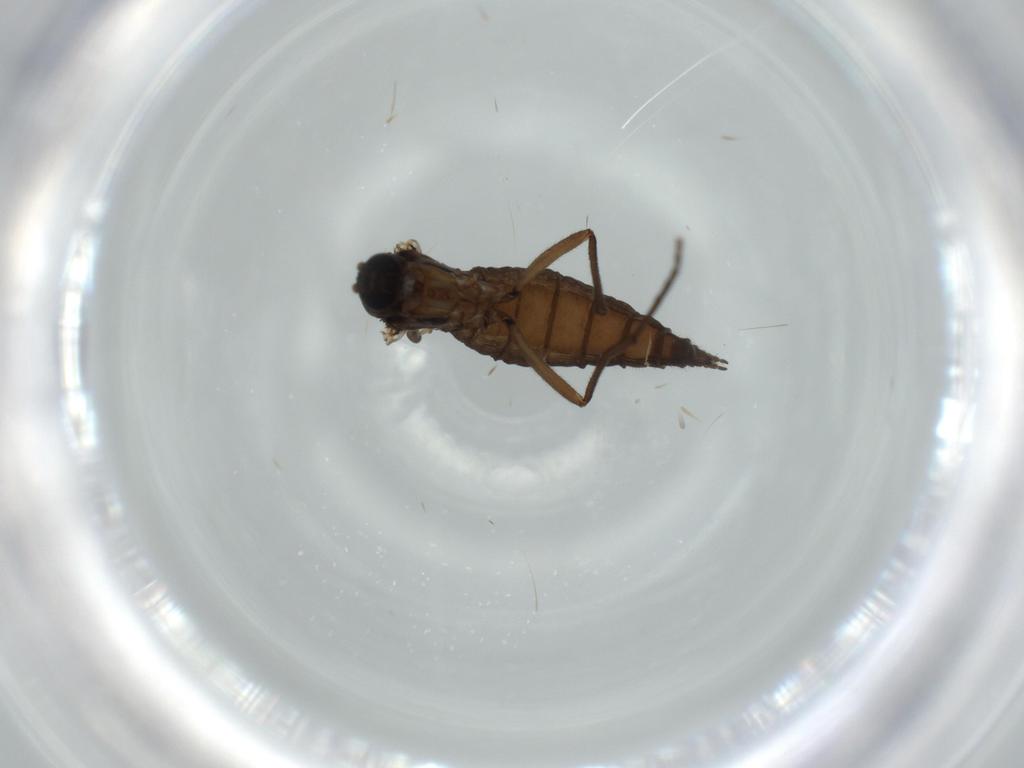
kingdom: Animalia
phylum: Arthropoda
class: Insecta
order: Diptera
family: Sciaridae
